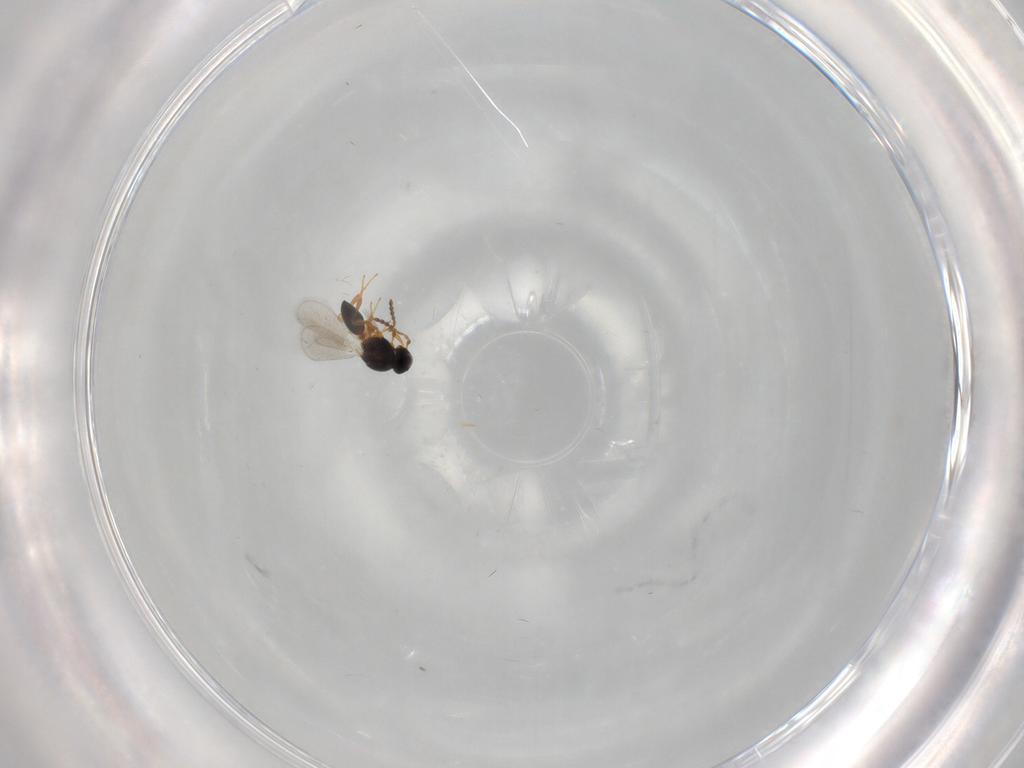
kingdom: Animalia
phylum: Arthropoda
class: Insecta
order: Hymenoptera
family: Platygastridae
